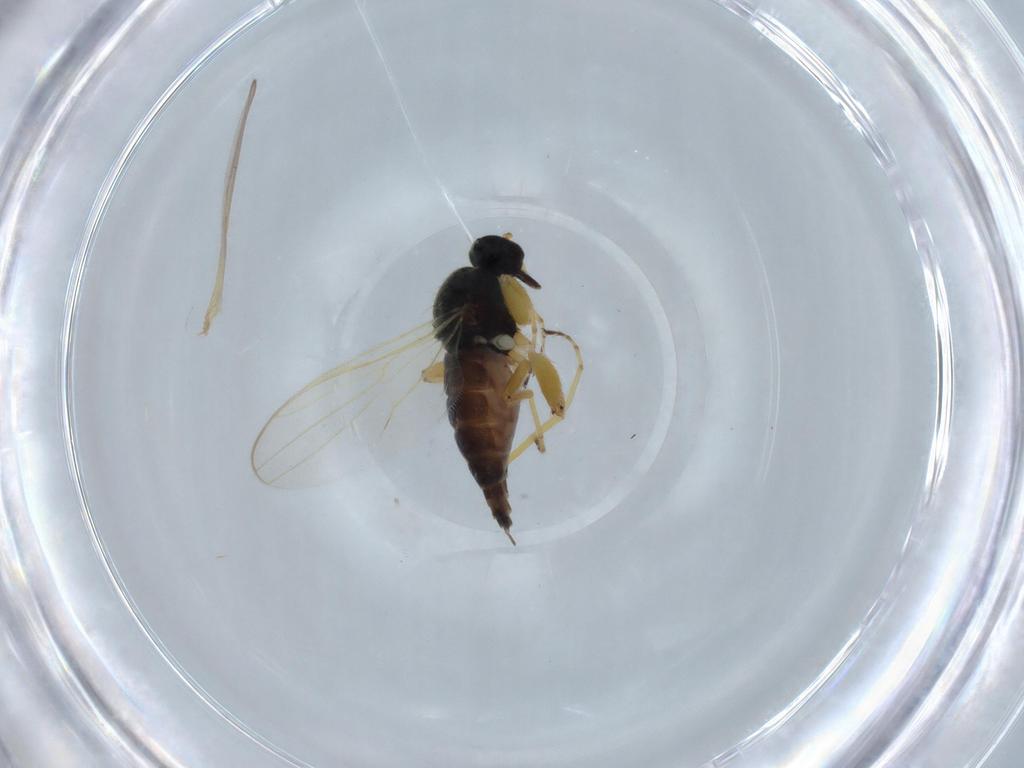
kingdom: Animalia
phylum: Arthropoda
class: Insecta
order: Diptera
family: Hybotidae
